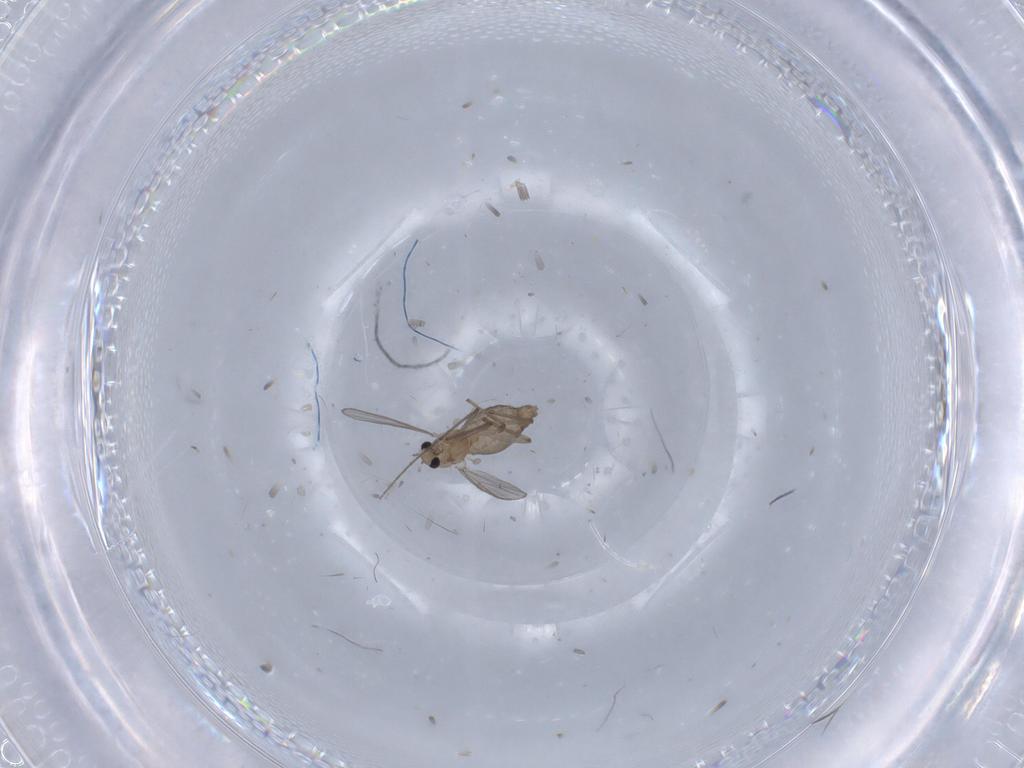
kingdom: Animalia
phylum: Arthropoda
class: Insecta
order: Diptera
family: Chironomidae
